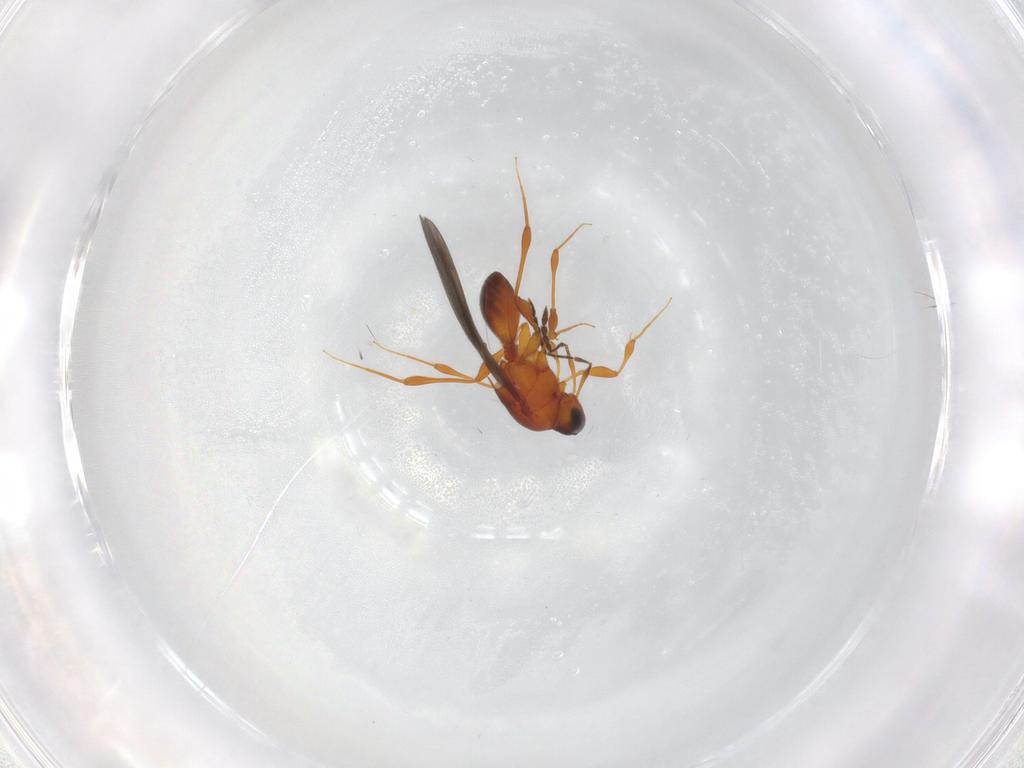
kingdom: Animalia
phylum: Arthropoda
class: Insecta
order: Hymenoptera
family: Platygastridae
